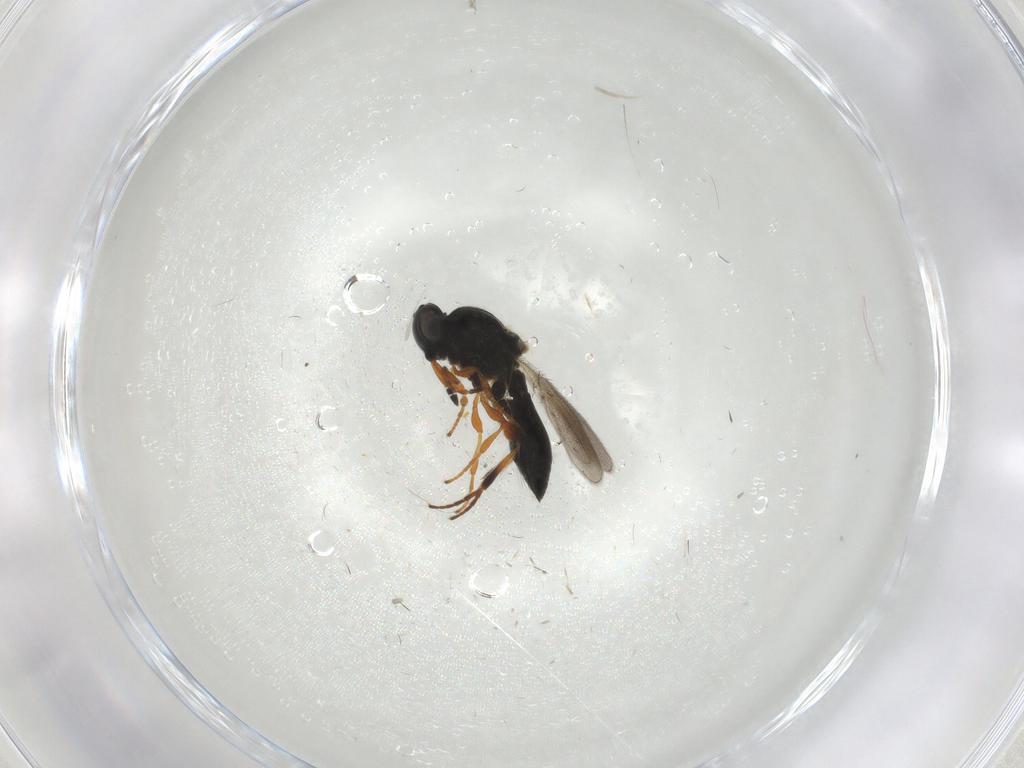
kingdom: Animalia
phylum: Arthropoda
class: Insecta
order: Hymenoptera
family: Platygastridae
